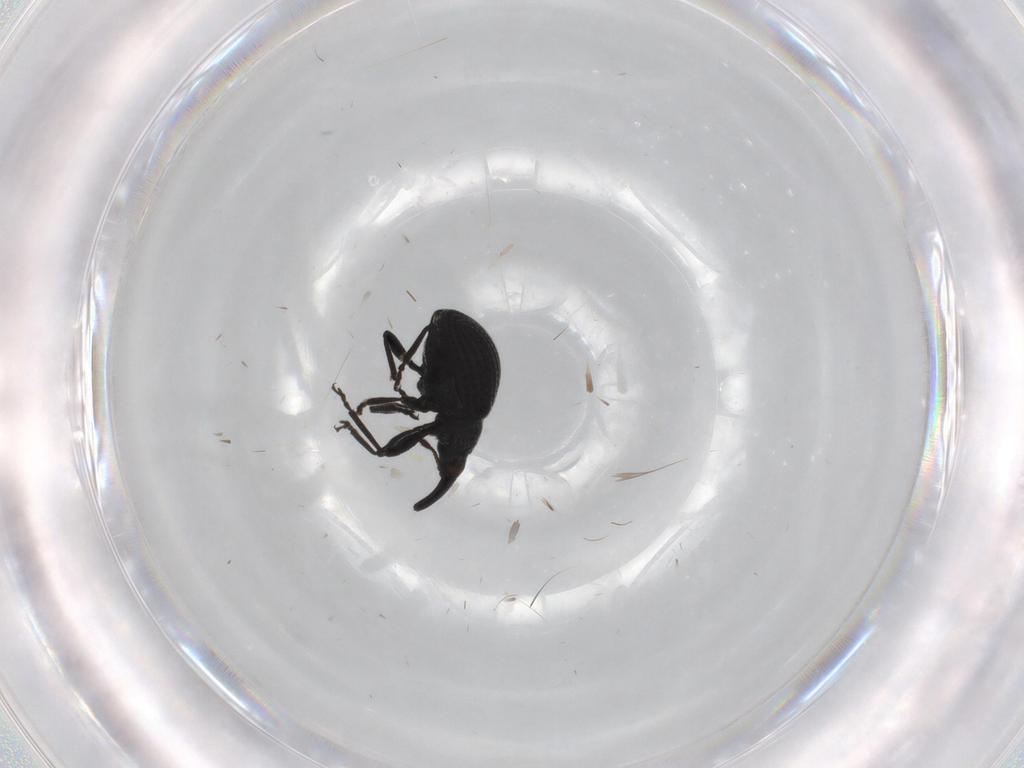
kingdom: Animalia
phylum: Arthropoda
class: Insecta
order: Coleoptera
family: Brentidae
